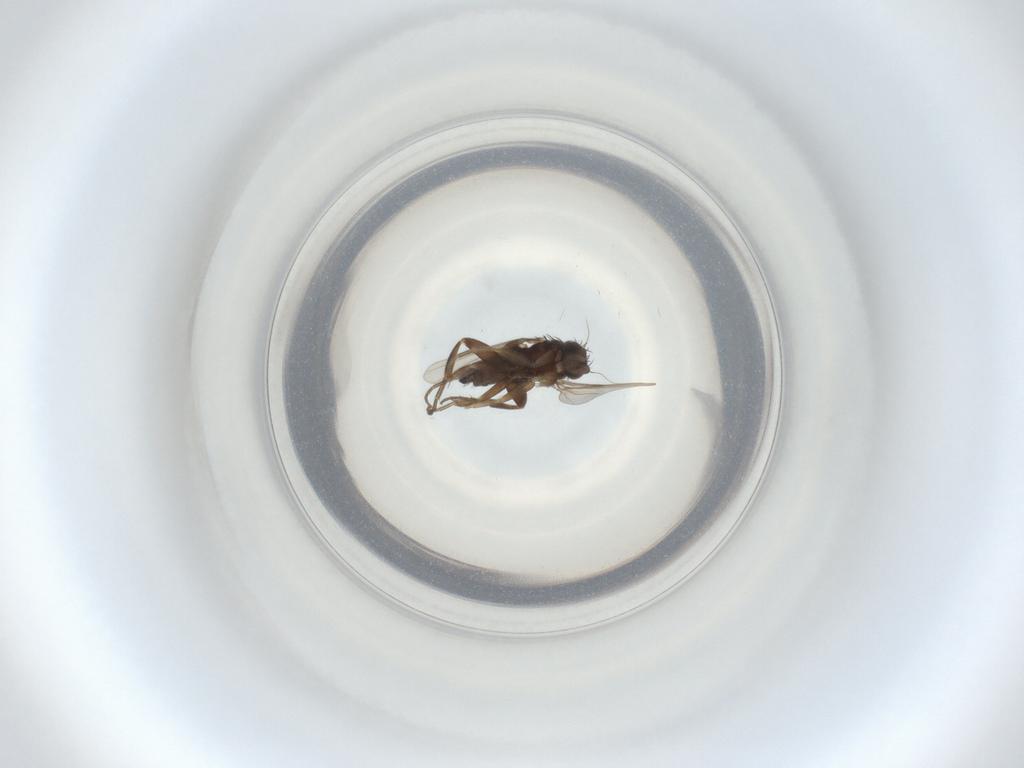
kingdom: Animalia
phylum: Arthropoda
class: Insecta
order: Diptera
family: Phoridae
